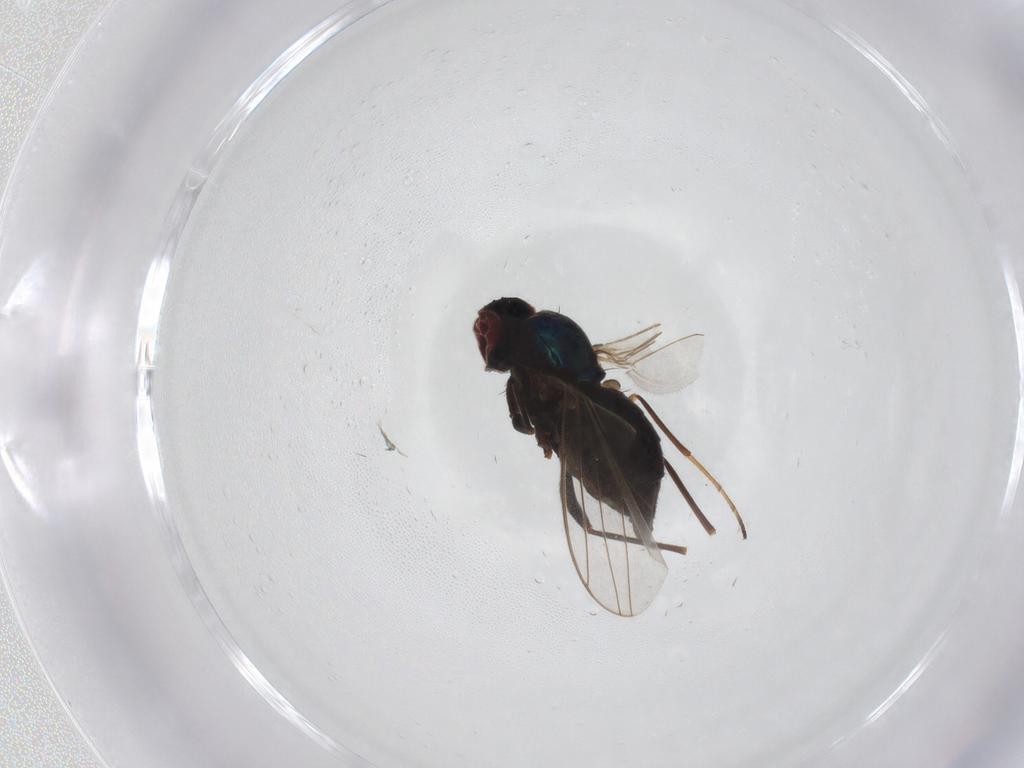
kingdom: Animalia
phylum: Arthropoda
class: Insecta
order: Diptera
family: Dolichopodidae
